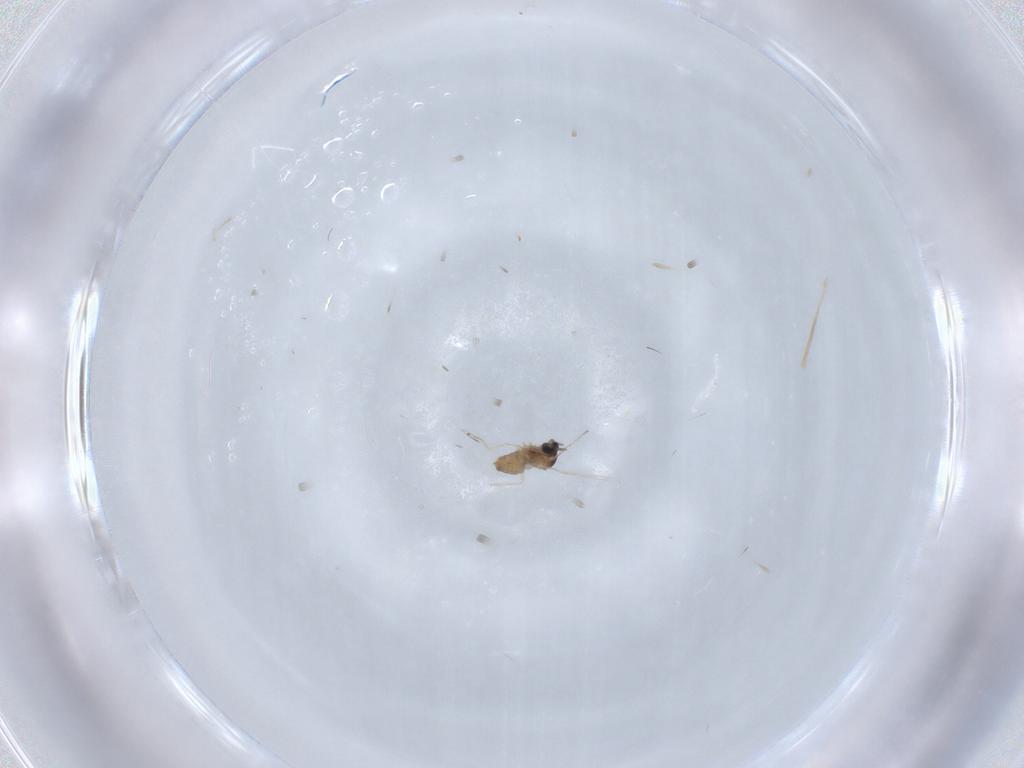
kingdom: Animalia
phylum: Arthropoda
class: Insecta
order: Diptera
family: Cecidomyiidae
